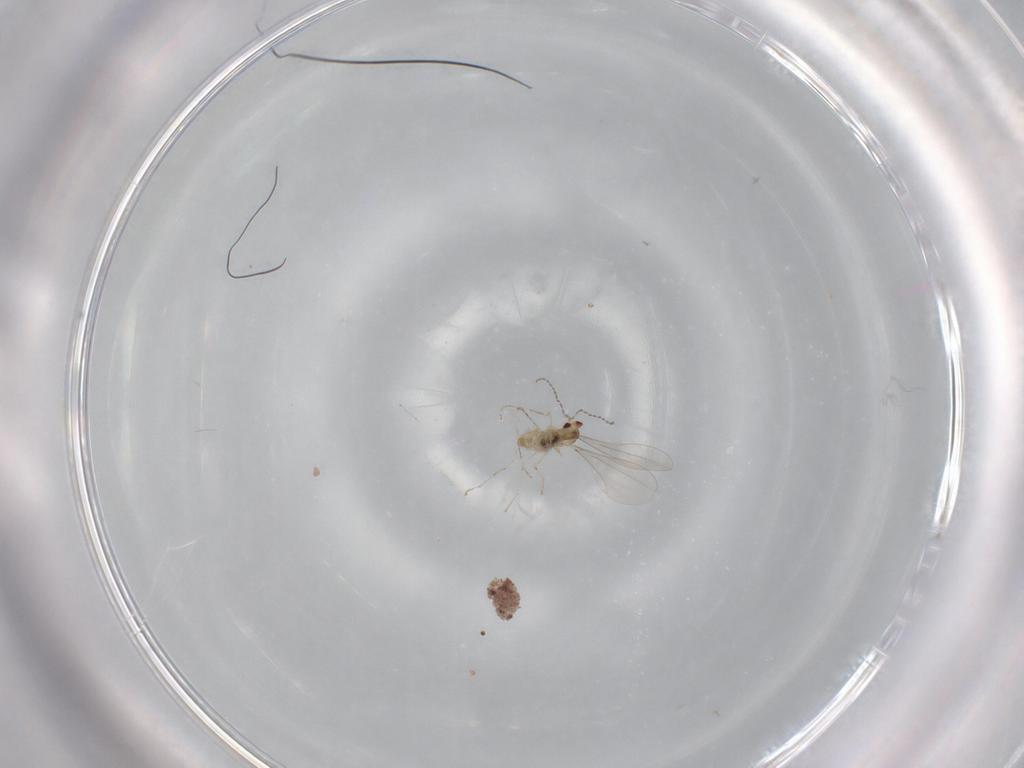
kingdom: Animalia
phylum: Arthropoda
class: Insecta
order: Diptera
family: Cecidomyiidae
